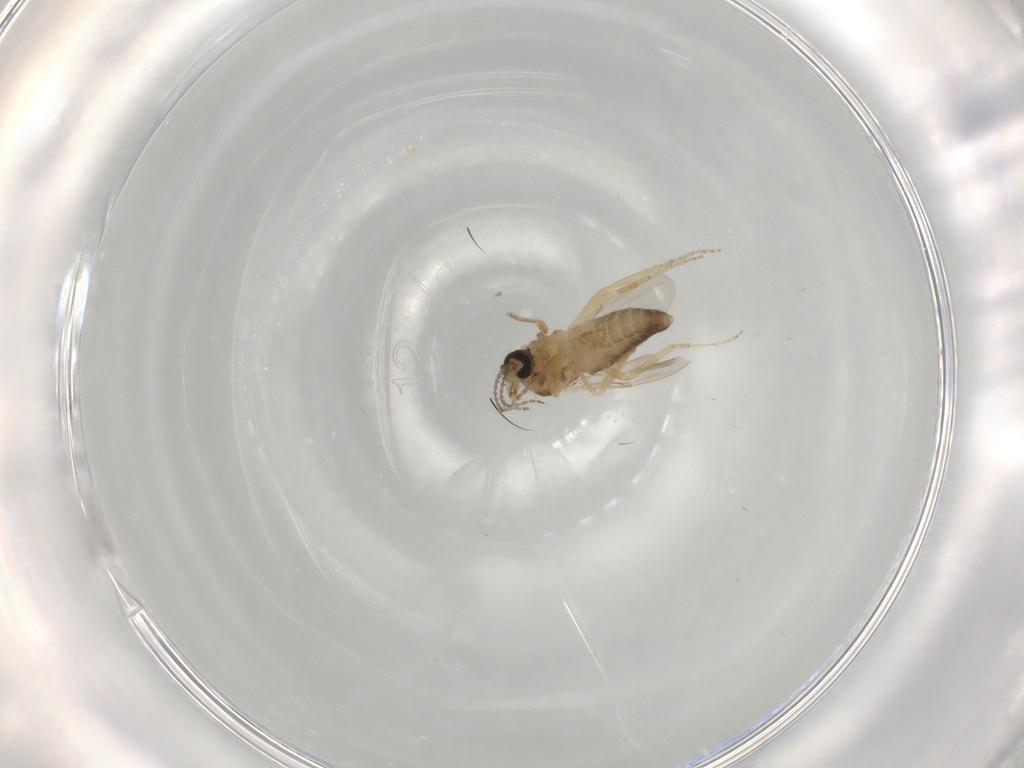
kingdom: Animalia
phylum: Arthropoda
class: Insecta
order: Diptera
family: Ceratopogonidae
